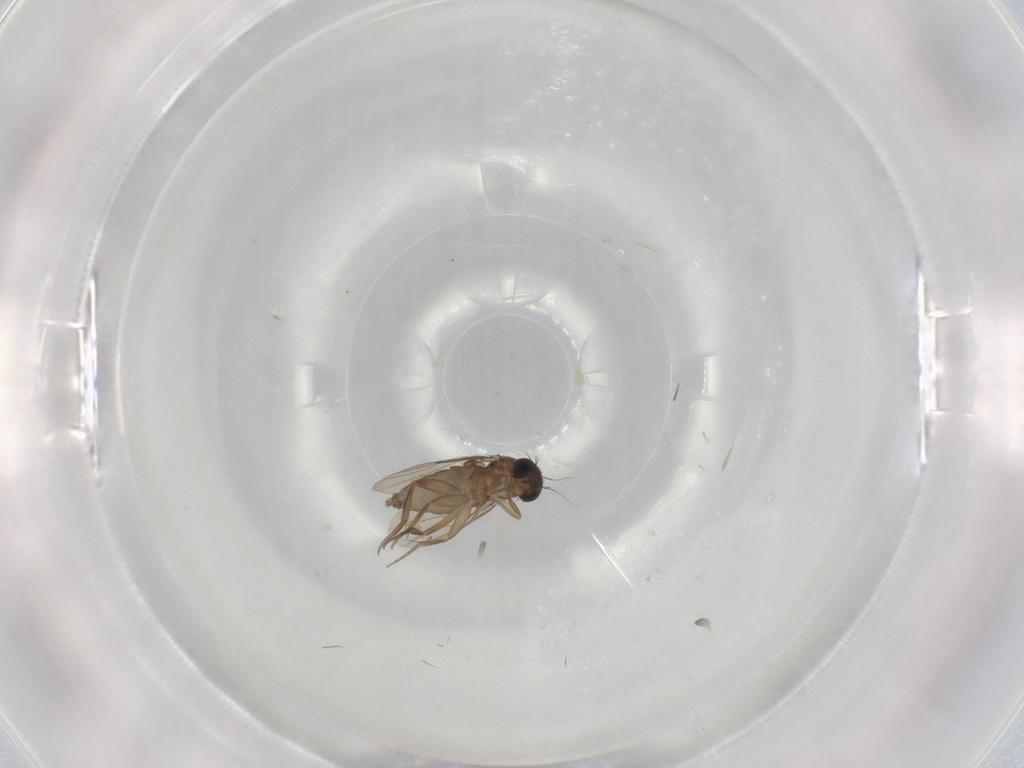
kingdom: Animalia
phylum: Arthropoda
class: Insecta
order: Diptera
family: Phoridae
